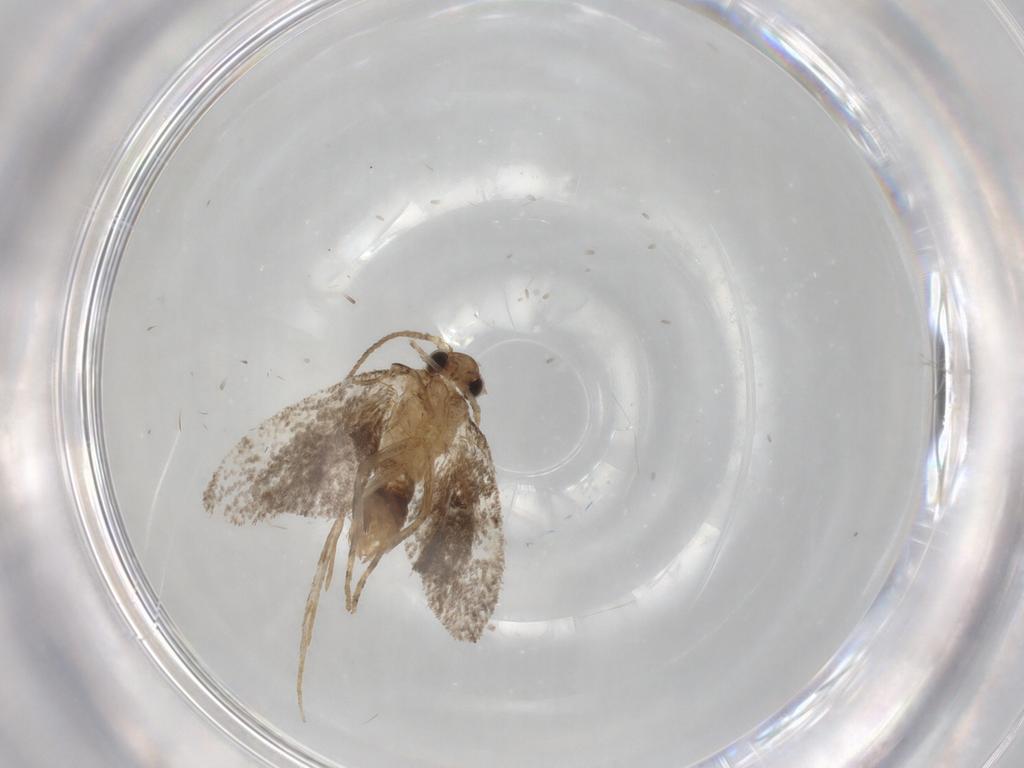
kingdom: Animalia
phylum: Arthropoda
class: Insecta
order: Lepidoptera
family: Dryadaulidae
